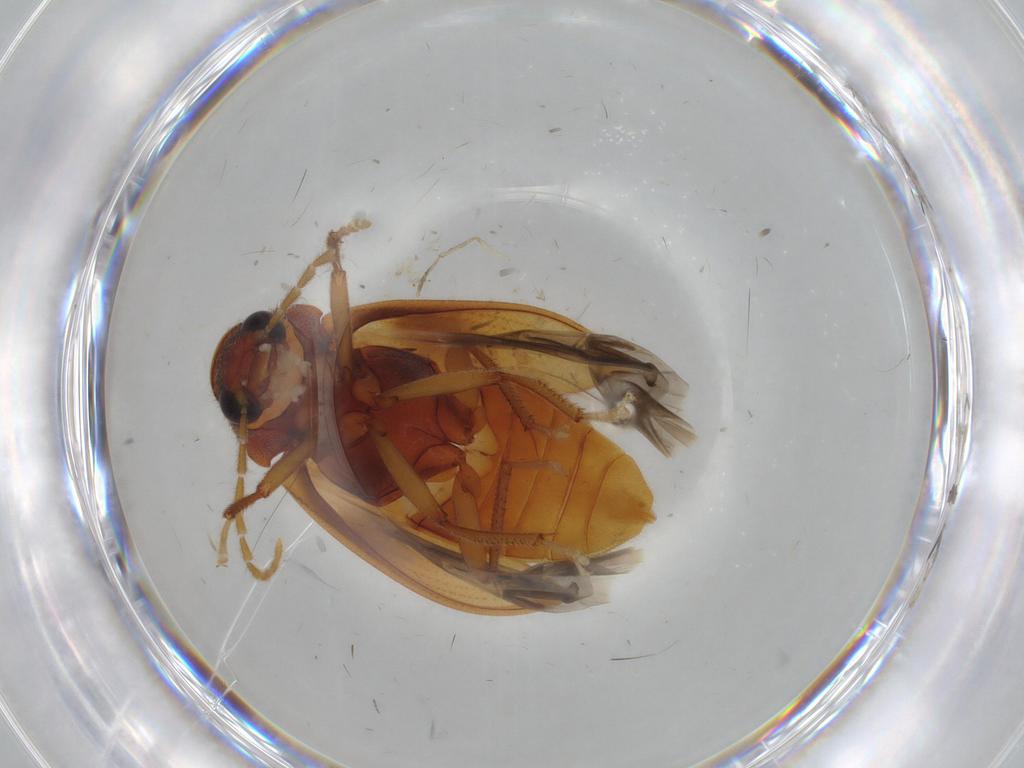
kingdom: Animalia
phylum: Arthropoda
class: Insecta
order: Coleoptera
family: Ptilodactylidae
